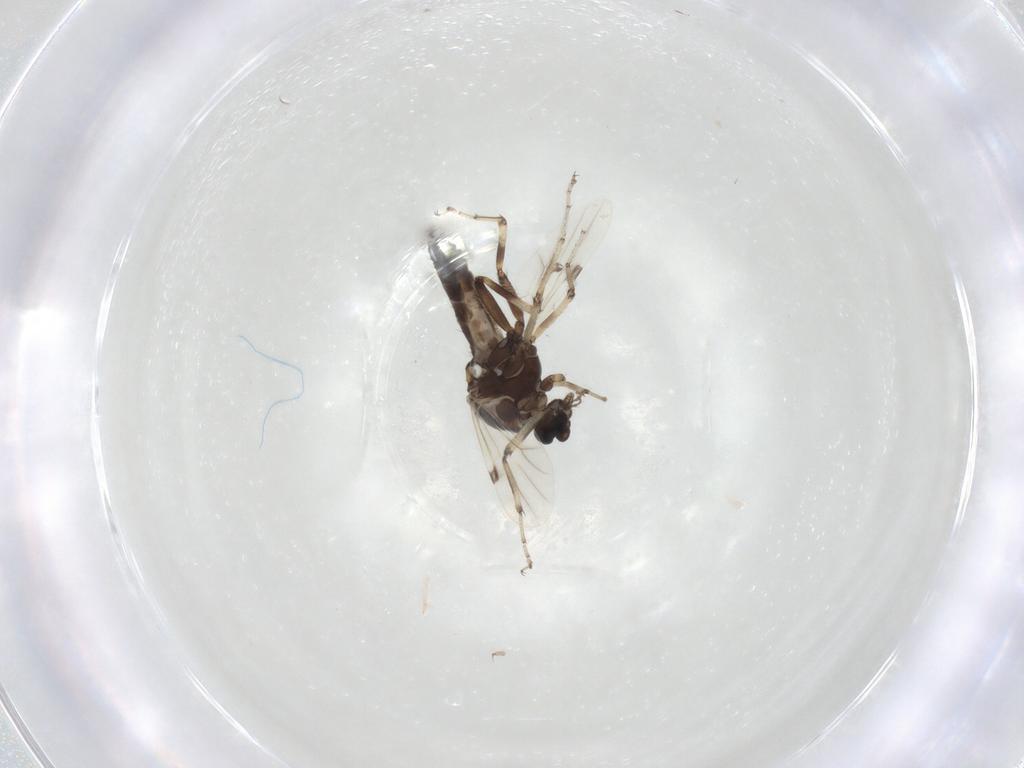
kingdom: Animalia
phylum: Arthropoda
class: Insecta
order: Diptera
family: Ceratopogonidae
